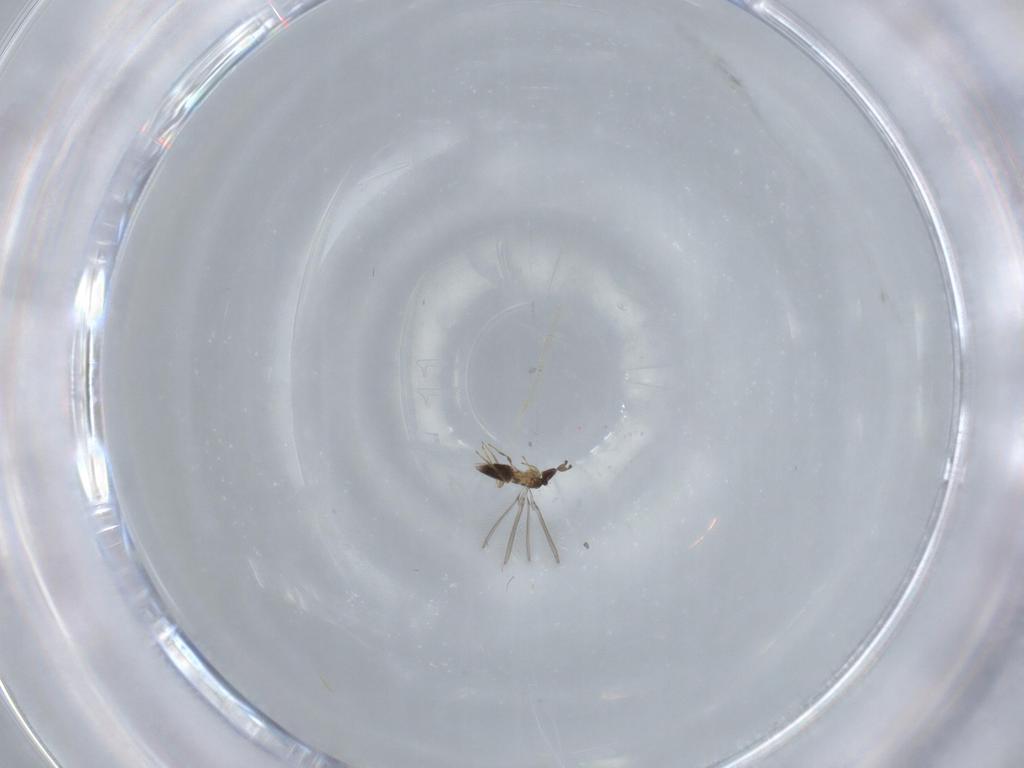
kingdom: Animalia
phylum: Arthropoda
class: Insecta
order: Hymenoptera
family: Mymaridae
